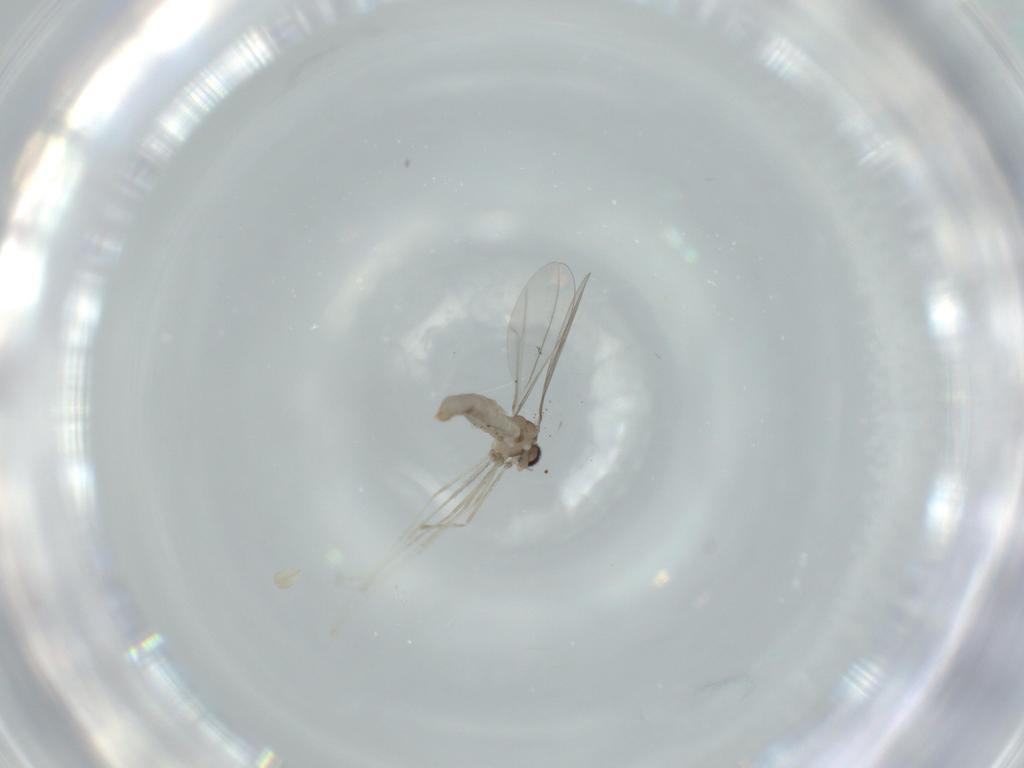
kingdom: Animalia
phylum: Arthropoda
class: Insecta
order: Diptera
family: Cecidomyiidae
